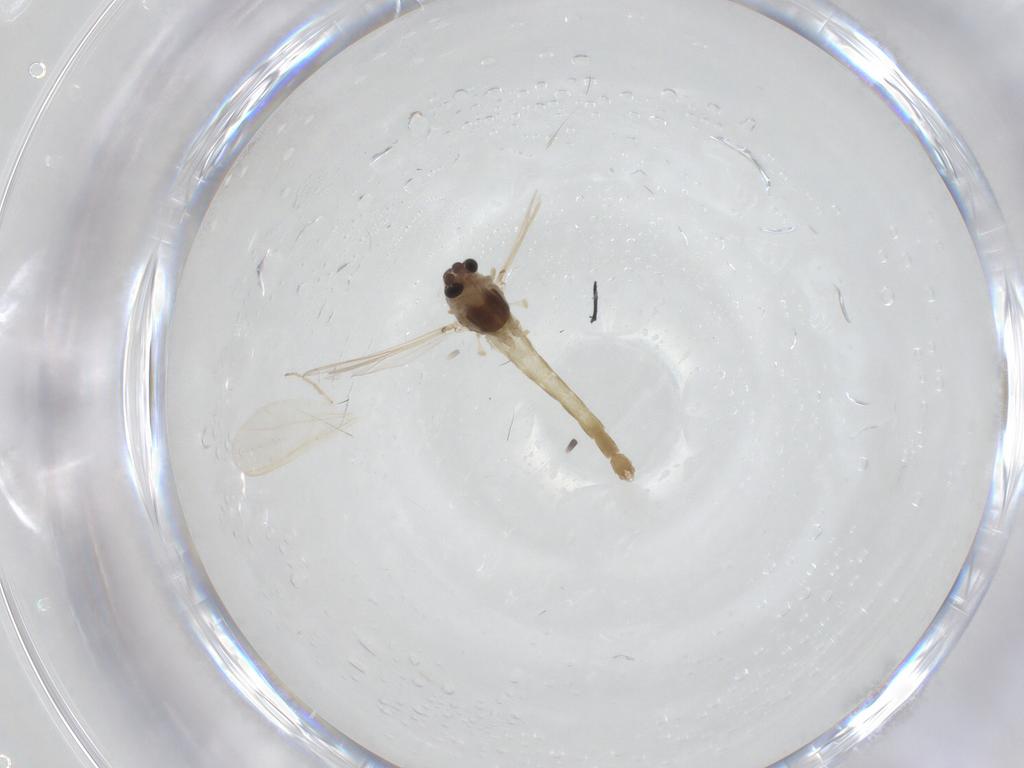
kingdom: Animalia
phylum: Arthropoda
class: Insecta
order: Diptera
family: Chironomidae
